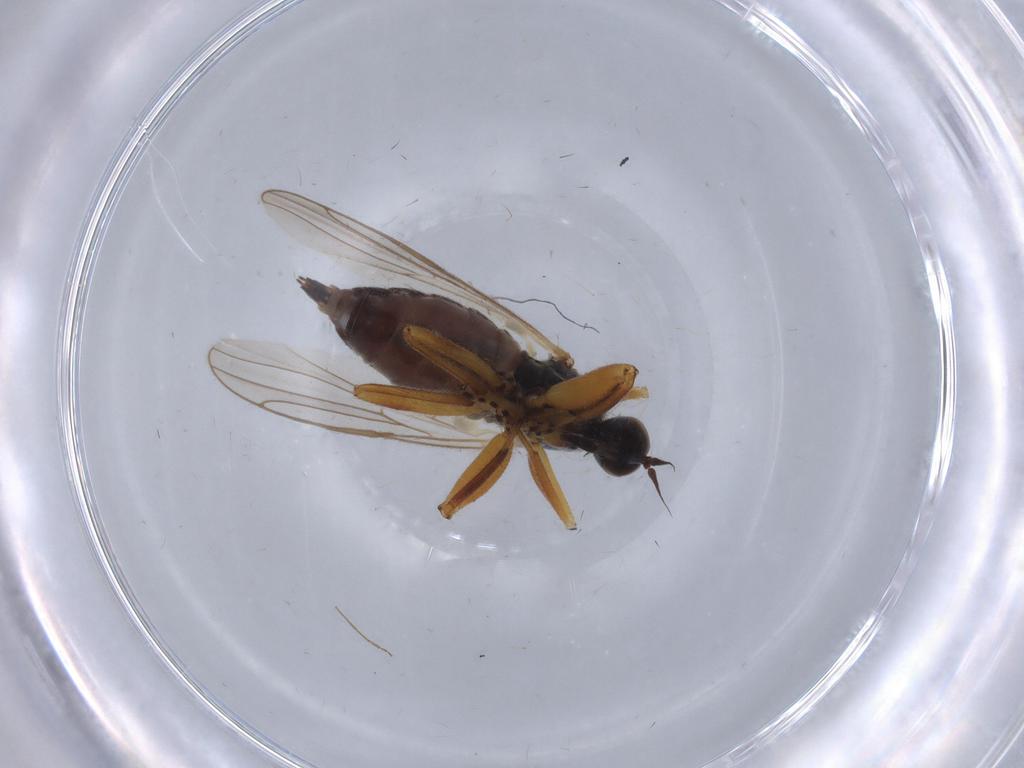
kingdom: Animalia
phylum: Arthropoda
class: Insecta
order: Diptera
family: Hybotidae
